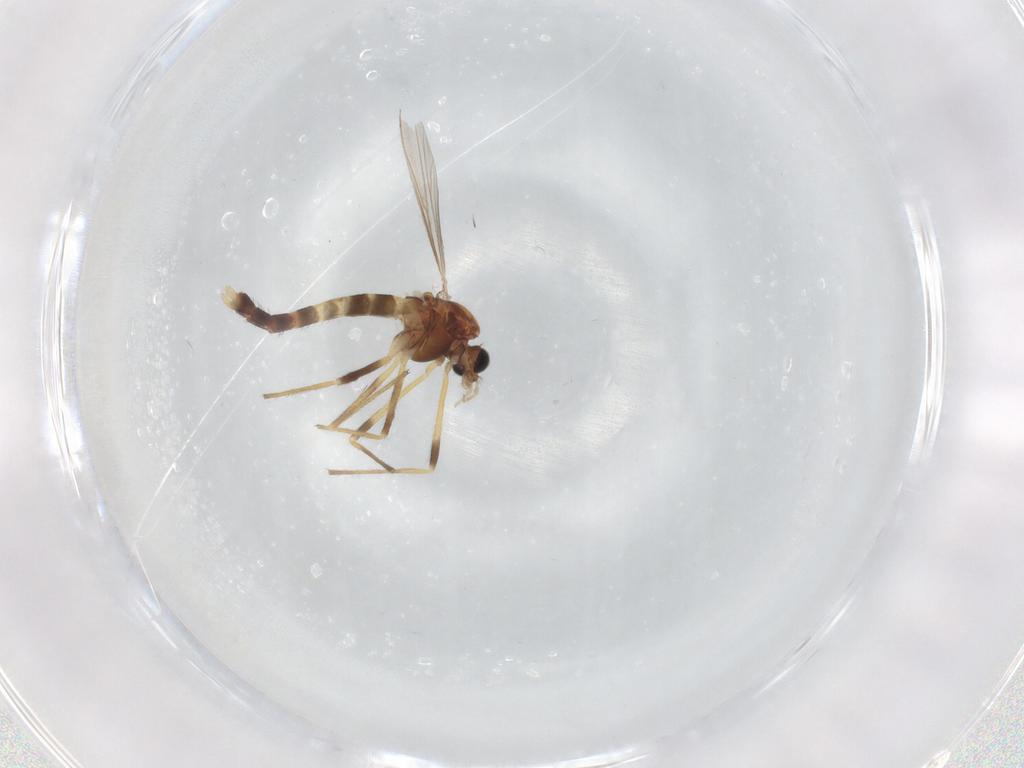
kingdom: Animalia
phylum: Arthropoda
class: Insecta
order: Diptera
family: Chironomidae
